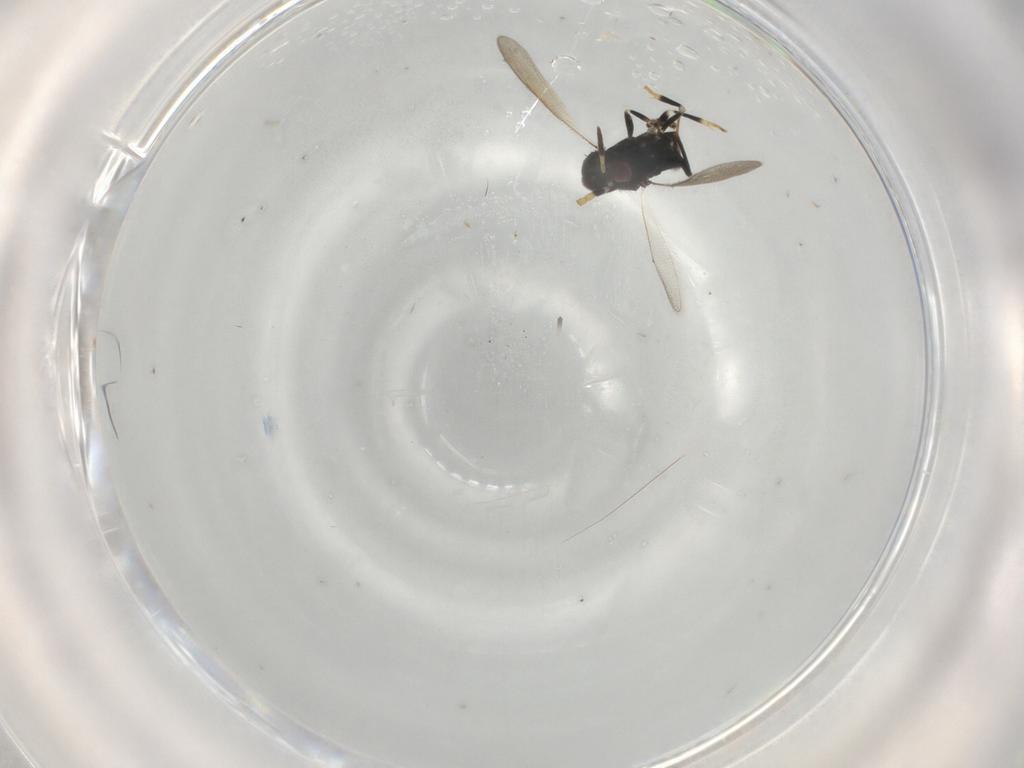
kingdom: Animalia
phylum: Arthropoda
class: Insecta
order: Hymenoptera
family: Aphelinidae
